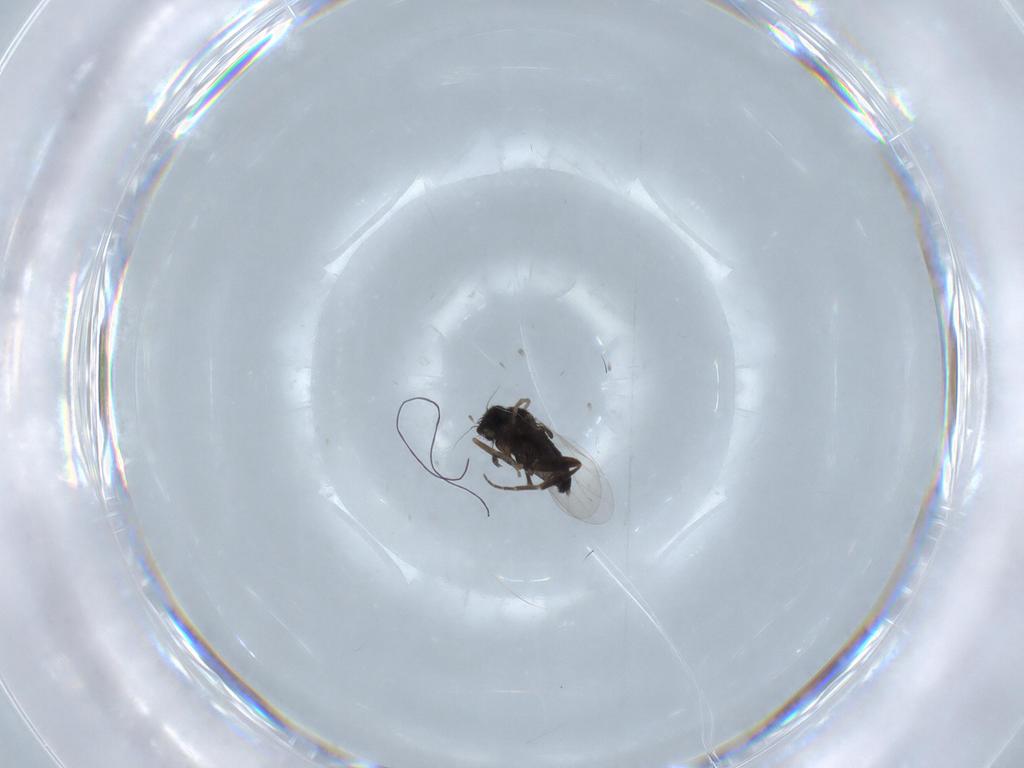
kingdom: Animalia
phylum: Arthropoda
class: Insecta
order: Diptera
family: Phoridae
